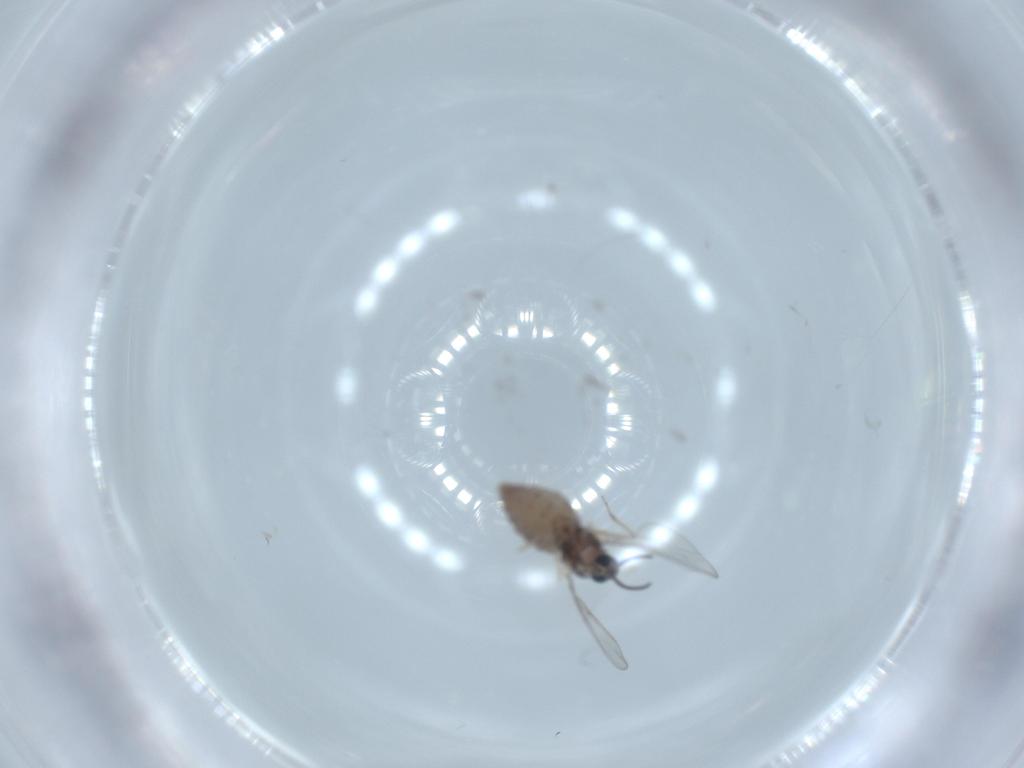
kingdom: Animalia
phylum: Arthropoda
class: Insecta
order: Diptera
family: Cecidomyiidae
